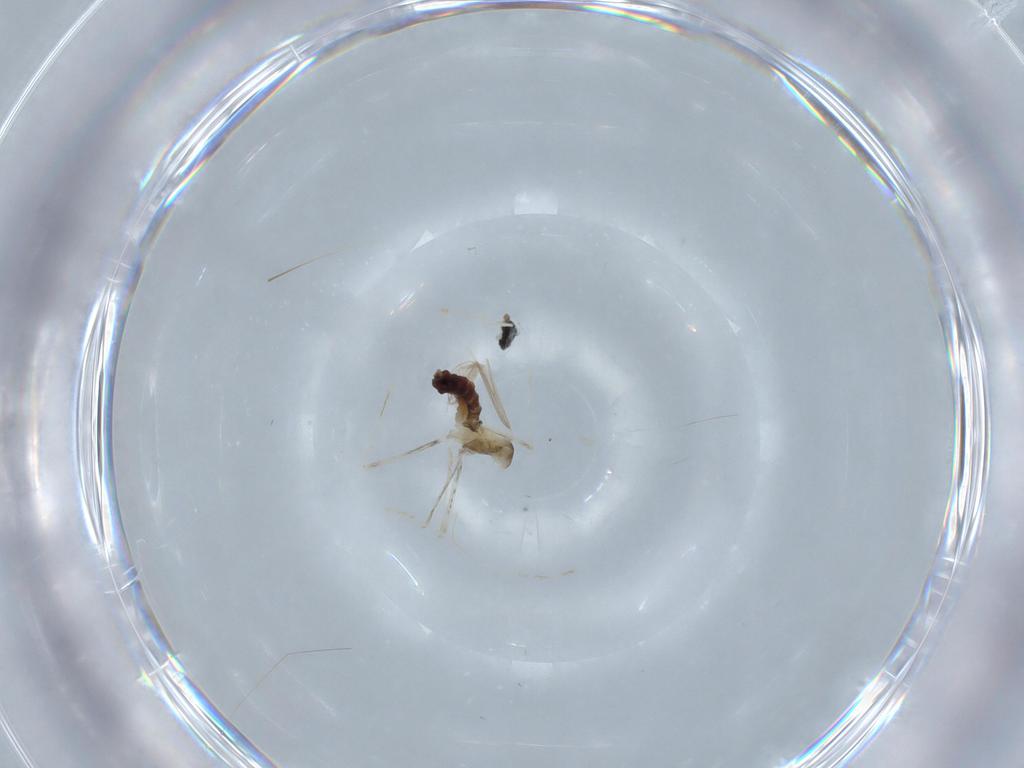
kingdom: Animalia
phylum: Arthropoda
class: Insecta
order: Diptera
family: Cecidomyiidae
